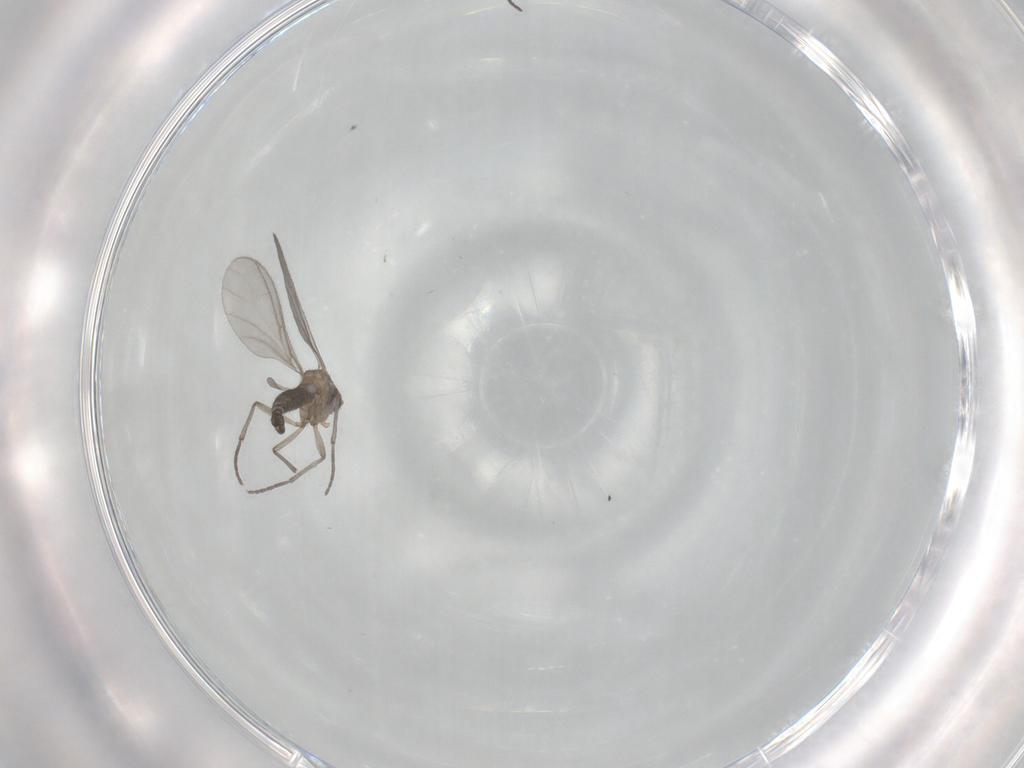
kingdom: Animalia
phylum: Arthropoda
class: Insecta
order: Diptera
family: Sciaridae
